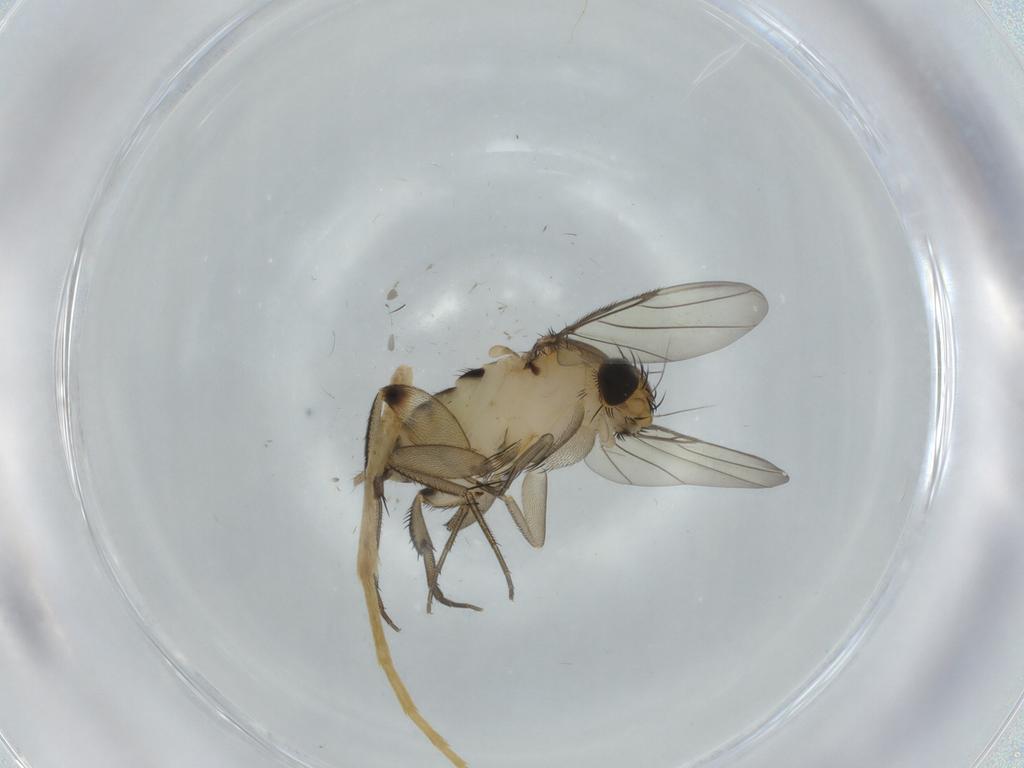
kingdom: Animalia
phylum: Arthropoda
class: Insecta
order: Diptera
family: Phoridae
